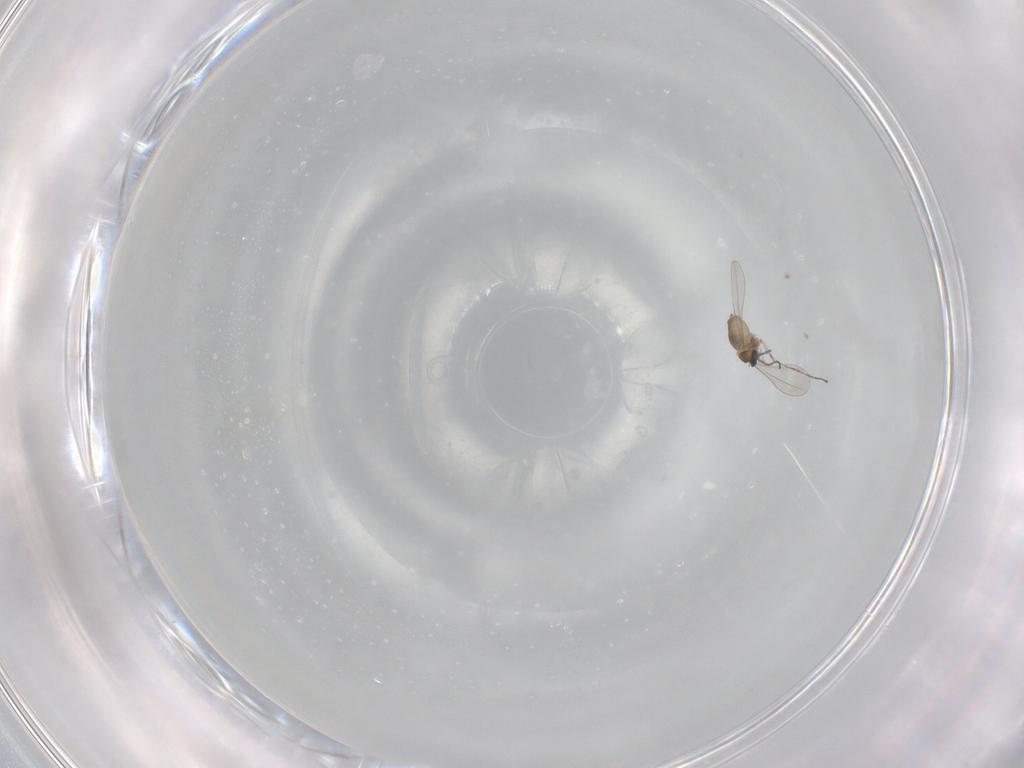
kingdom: Animalia
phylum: Arthropoda
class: Insecta
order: Diptera
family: Cecidomyiidae
